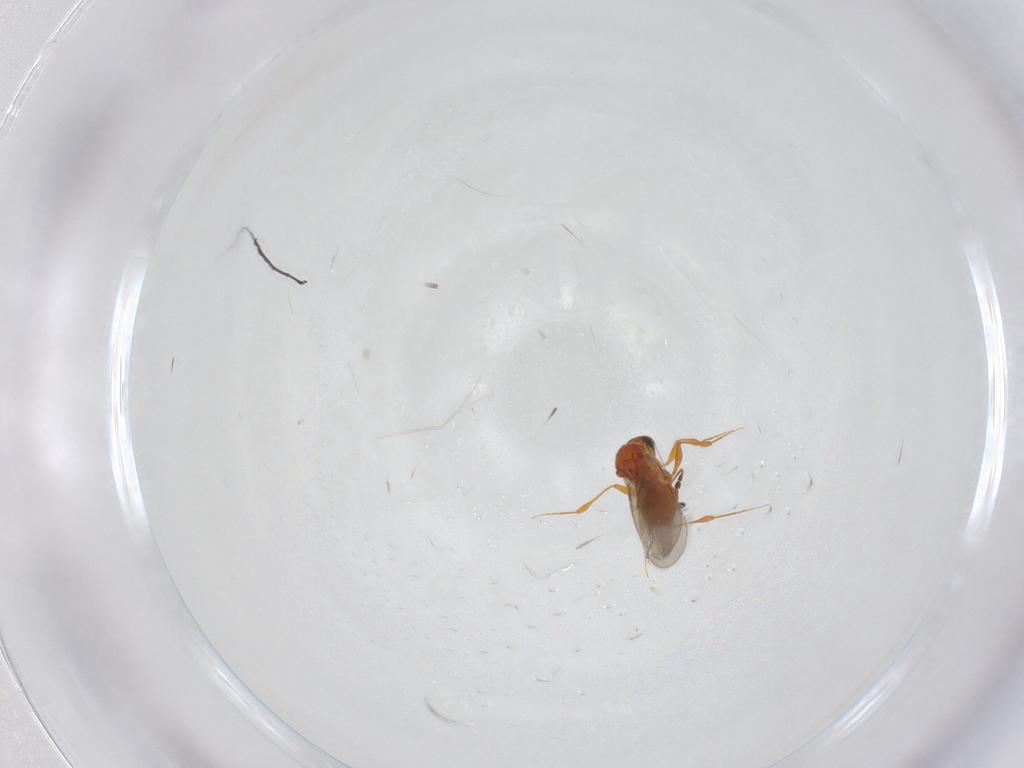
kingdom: Animalia
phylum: Arthropoda
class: Insecta
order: Hymenoptera
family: Platygastridae
